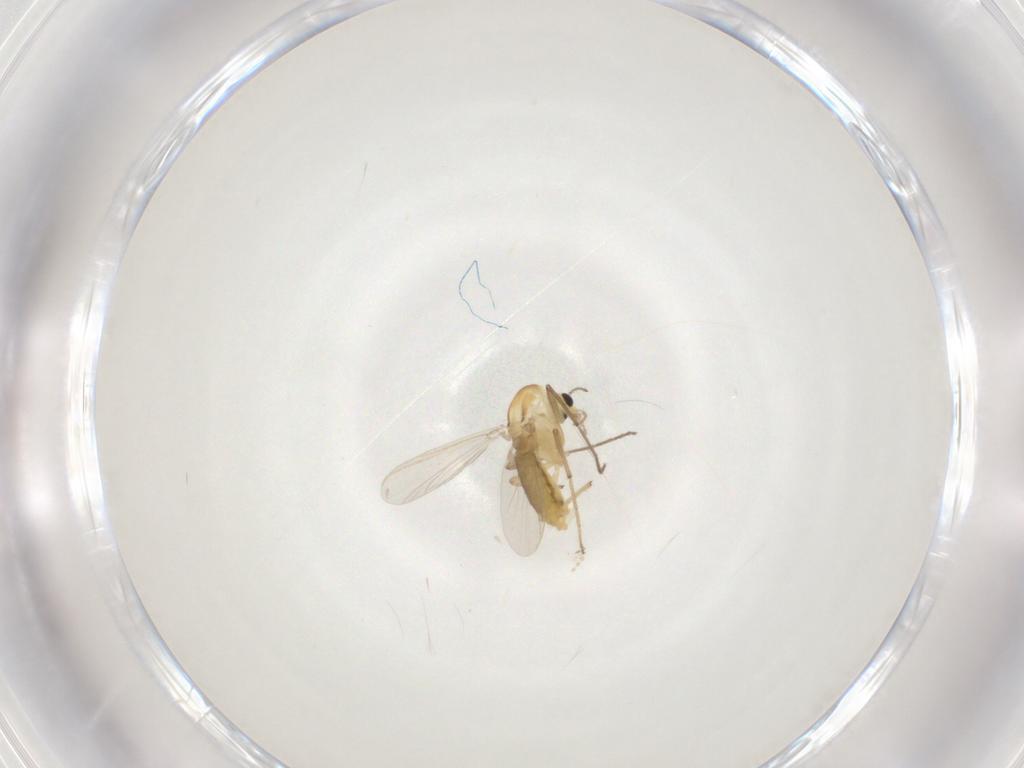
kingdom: Animalia
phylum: Arthropoda
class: Insecta
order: Diptera
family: Chironomidae
